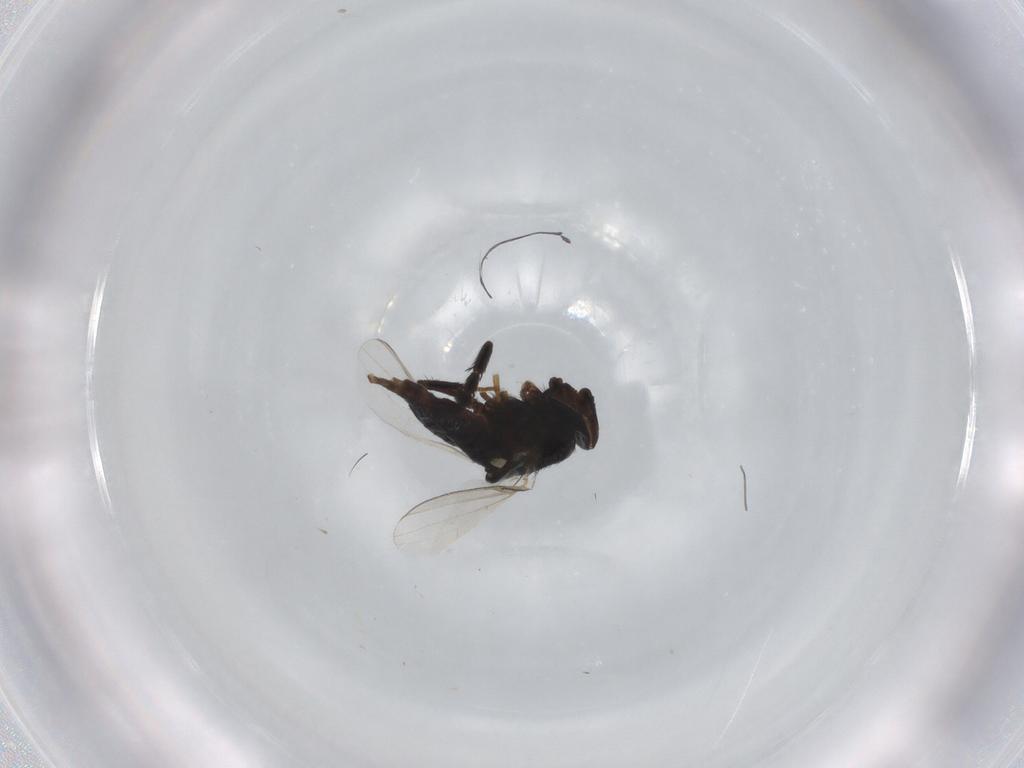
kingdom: Animalia
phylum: Arthropoda
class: Insecta
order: Diptera
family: Milichiidae
